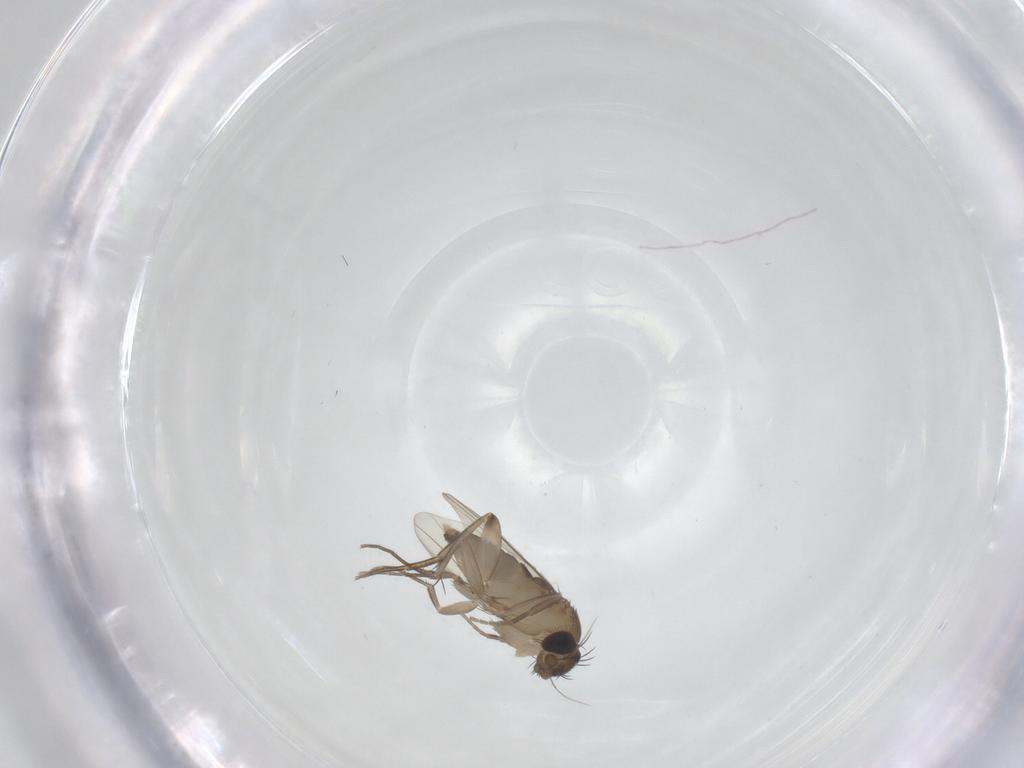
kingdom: Animalia
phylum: Arthropoda
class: Insecta
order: Diptera
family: Phoridae
